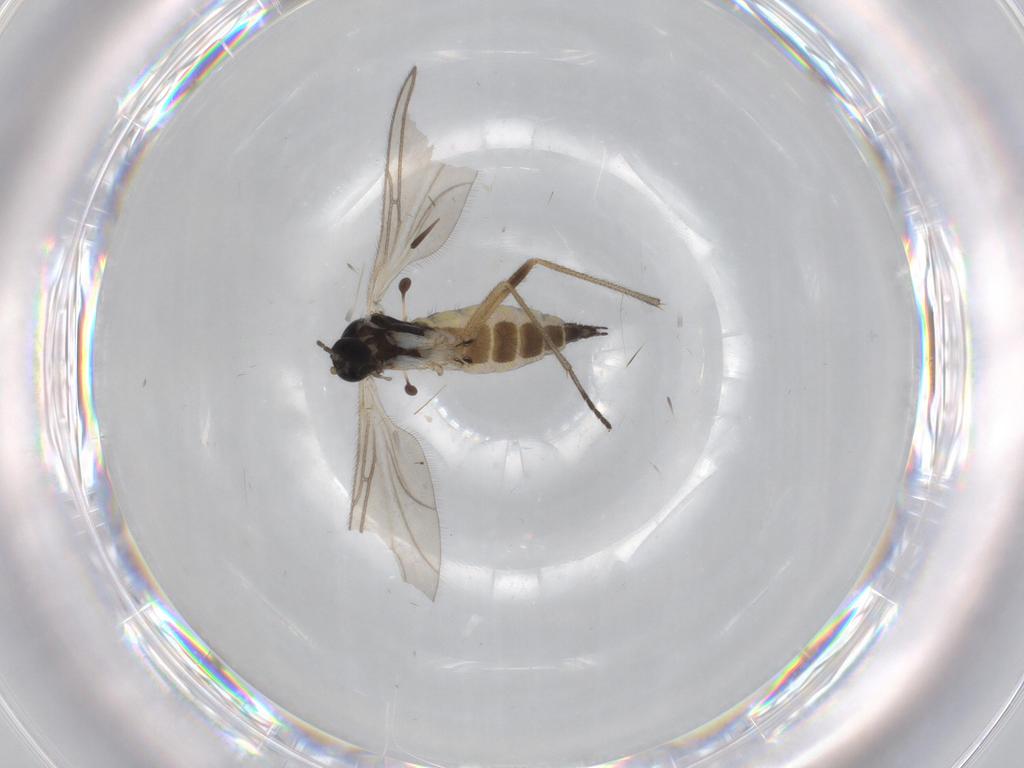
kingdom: Animalia
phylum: Arthropoda
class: Insecta
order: Diptera
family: Sciaridae
